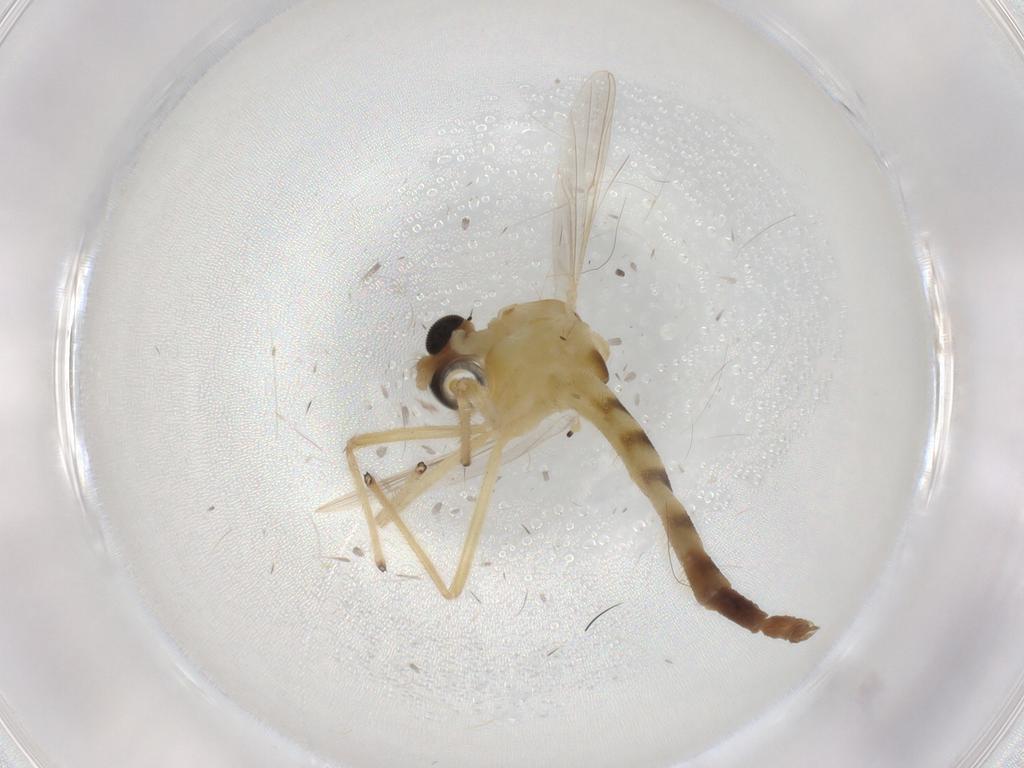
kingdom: Animalia
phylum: Arthropoda
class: Insecta
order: Diptera
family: Chironomidae
